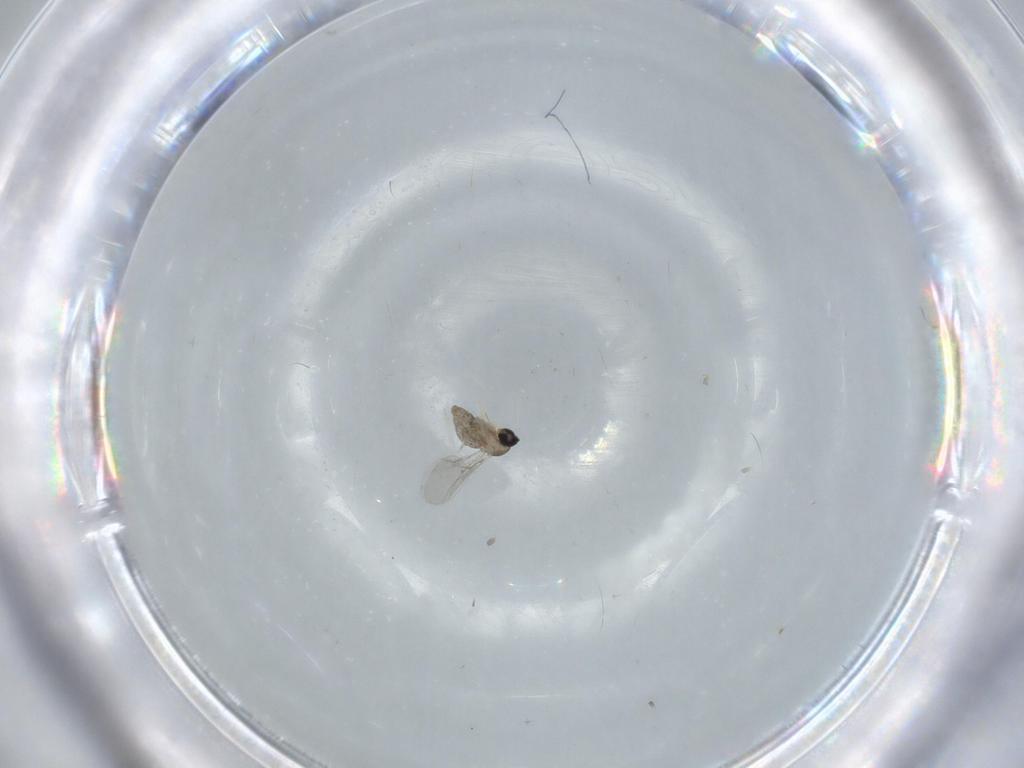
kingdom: Animalia
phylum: Arthropoda
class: Insecta
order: Diptera
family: Cecidomyiidae
